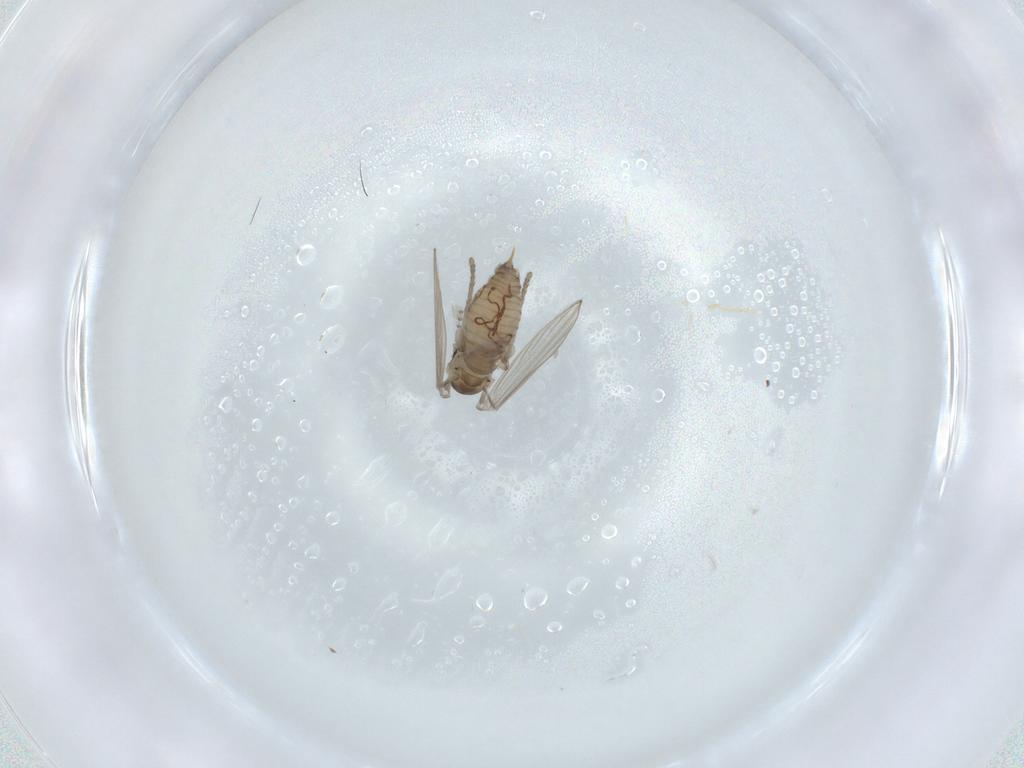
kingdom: Animalia
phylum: Arthropoda
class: Insecta
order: Diptera
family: Psychodidae
